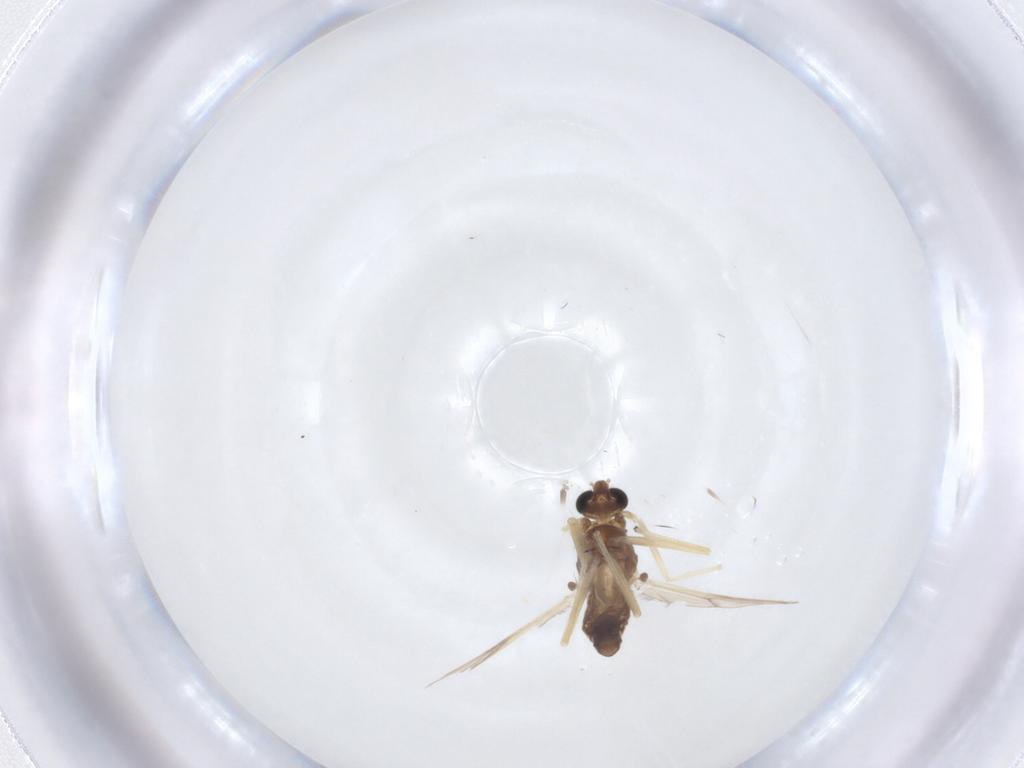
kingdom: Animalia
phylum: Arthropoda
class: Insecta
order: Diptera
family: Chironomidae
